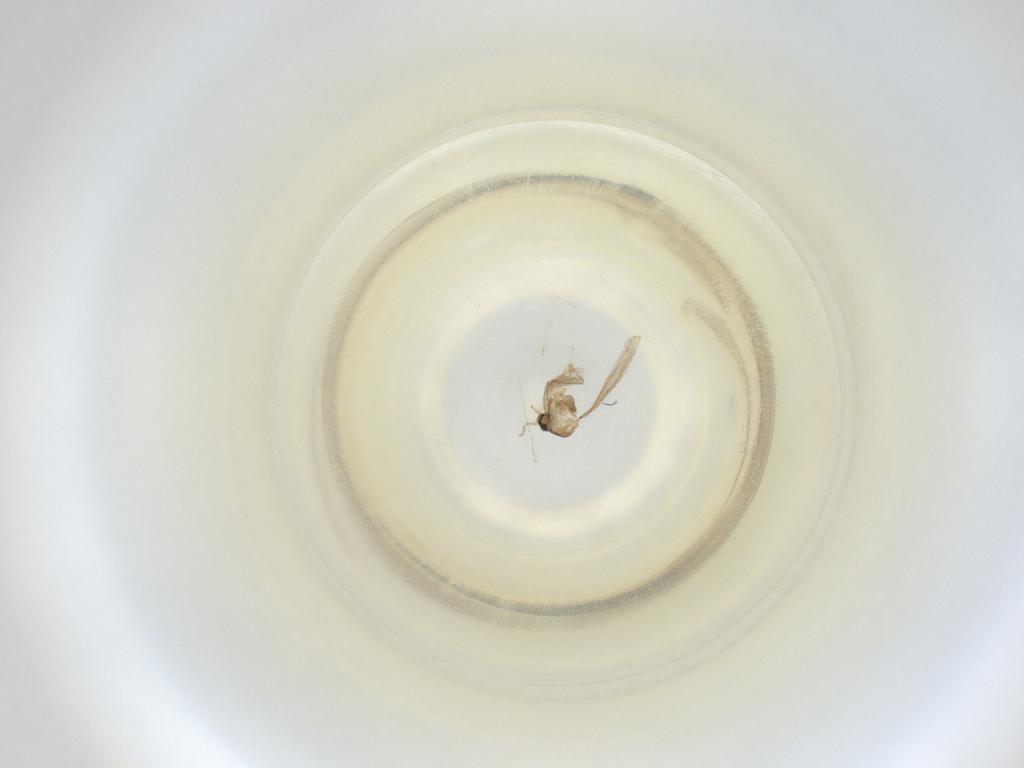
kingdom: Animalia
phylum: Arthropoda
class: Insecta
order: Diptera
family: Cecidomyiidae
